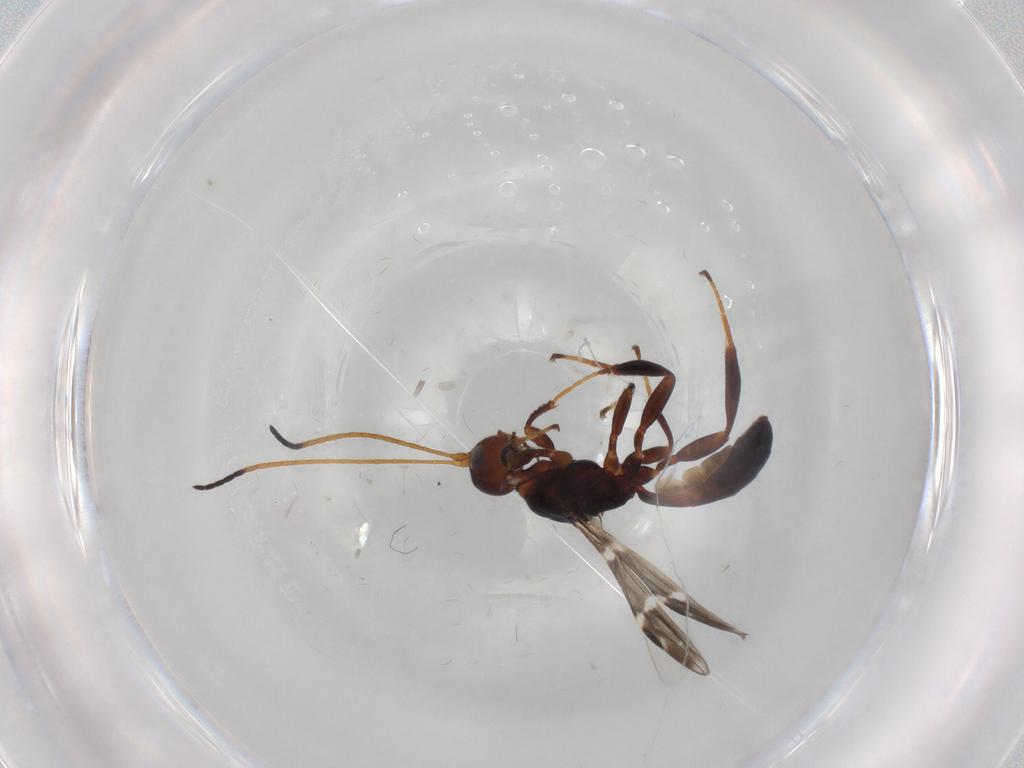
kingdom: Animalia
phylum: Arthropoda
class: Insecta
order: Hymenoptera
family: Braconidae
